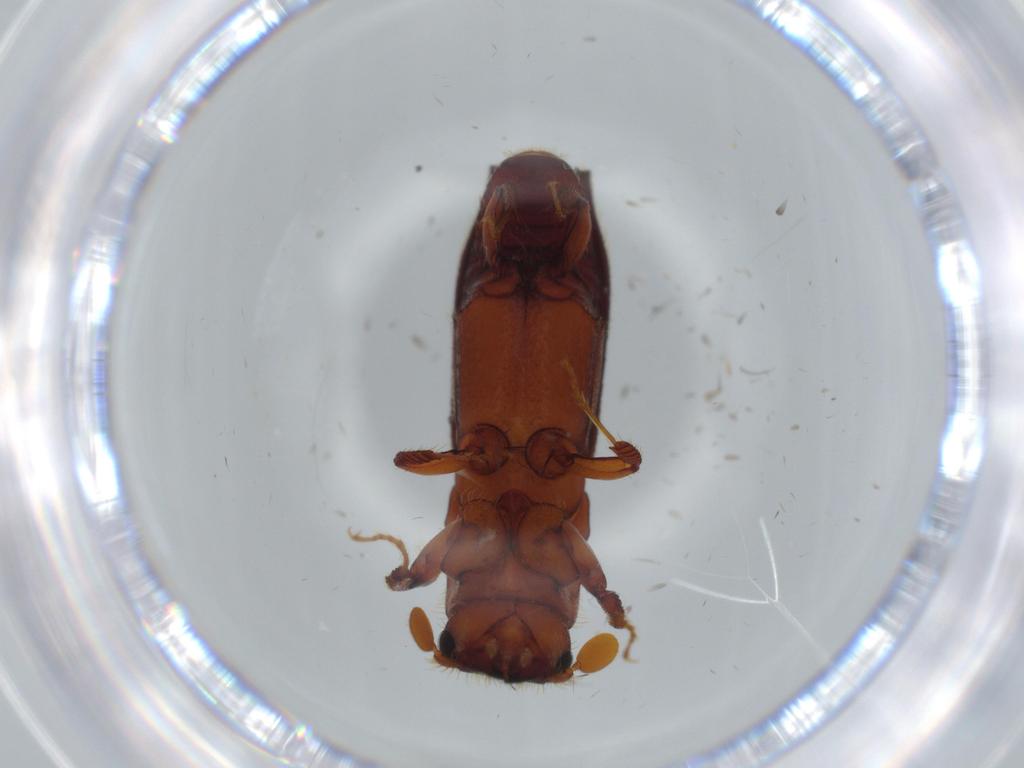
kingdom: Animalia
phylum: Arthropoda
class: Insecta
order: Coleoptera
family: Curculionidae
